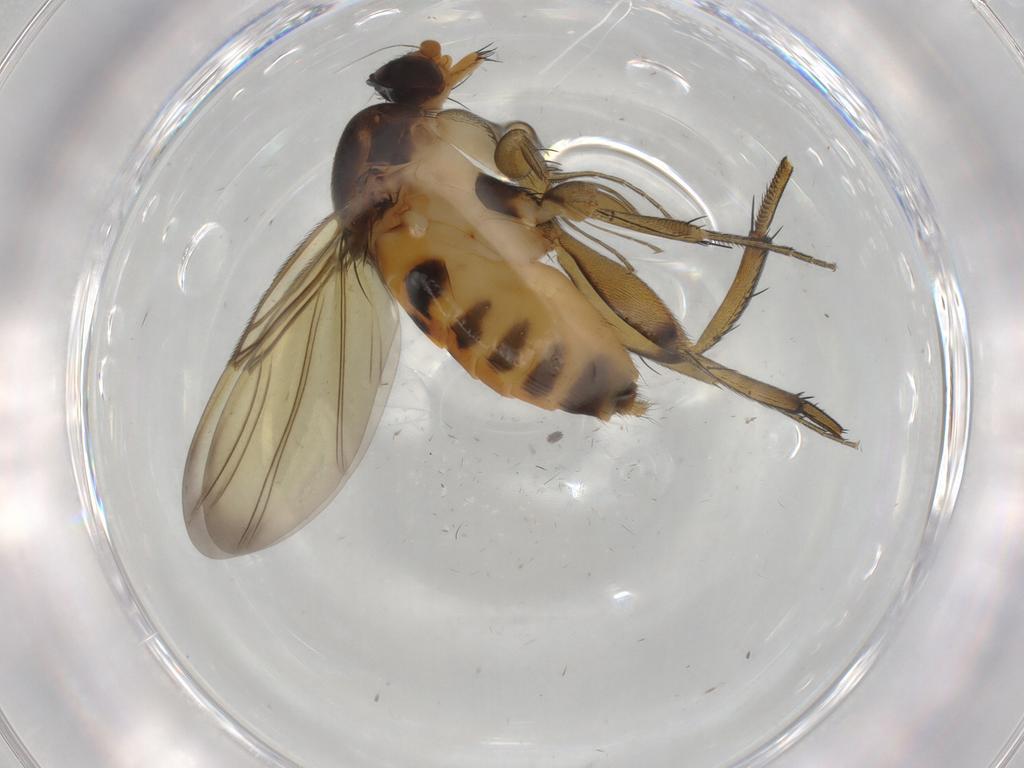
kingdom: Animalia
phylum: Arthropoda
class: Insecta
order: Diptera
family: Phoridae
